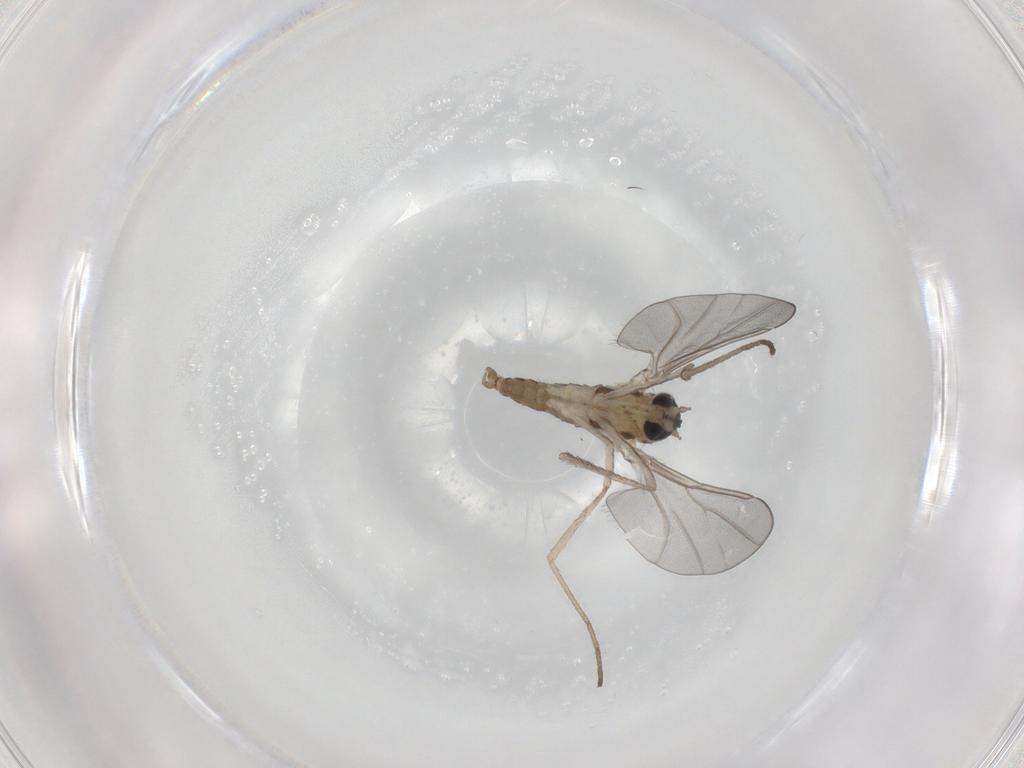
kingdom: Animalia
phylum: Arthropoda
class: Insecta
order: Diptera
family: Cecidomyiidae
